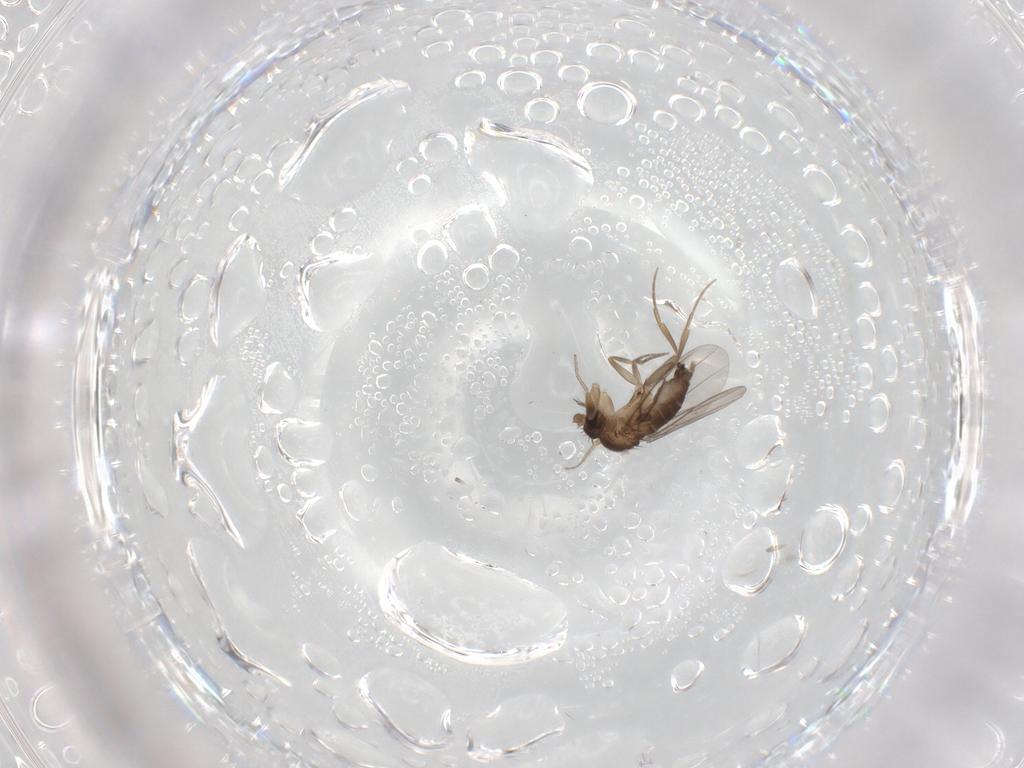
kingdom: Animalia
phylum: Arthropoda
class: Insecta
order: Diptera
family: Phoridae
